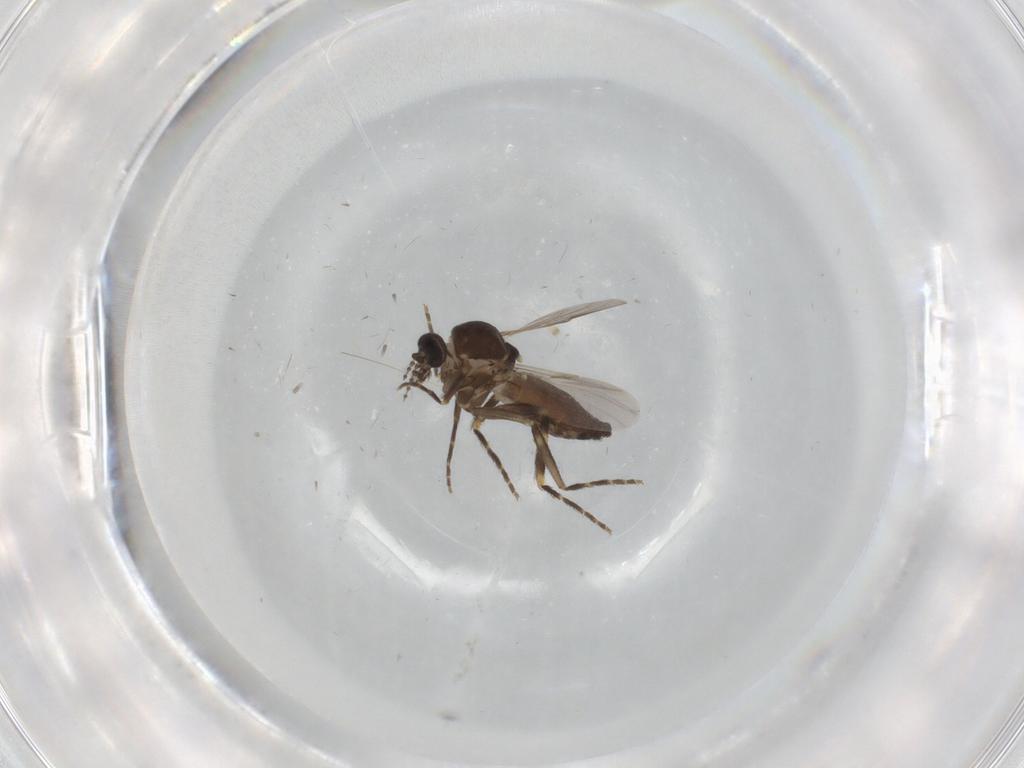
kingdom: Animalia
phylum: Arthropoda
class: Insecta
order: Diptera
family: Ceratopogonidae
